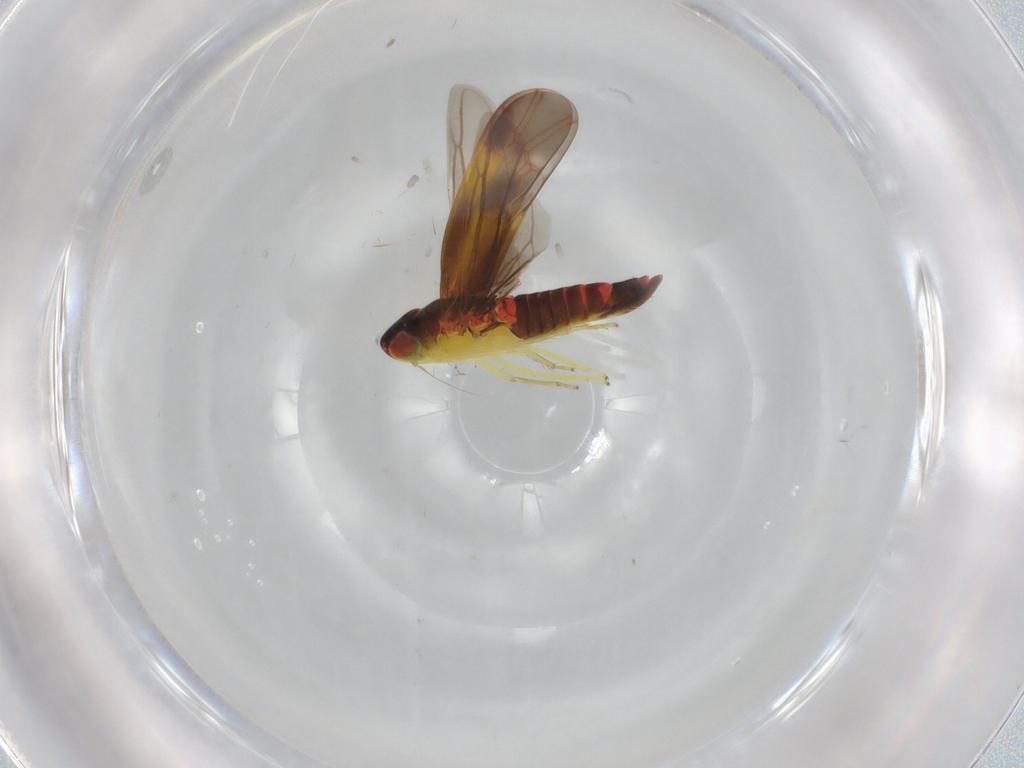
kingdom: Animalia
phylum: Arthropoda
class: Insecta
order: Hemiptera
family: Cicadellidae
